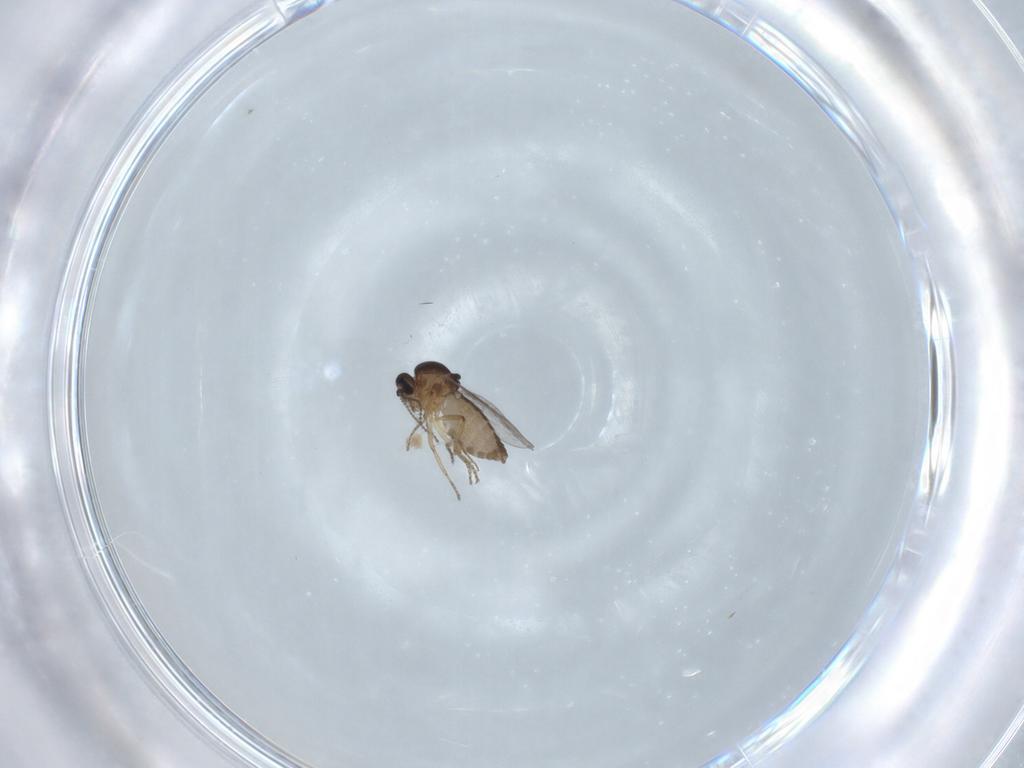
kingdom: Animalia
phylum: Arthropoda
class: Insecta
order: Diptera
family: Ceratopogonidae
